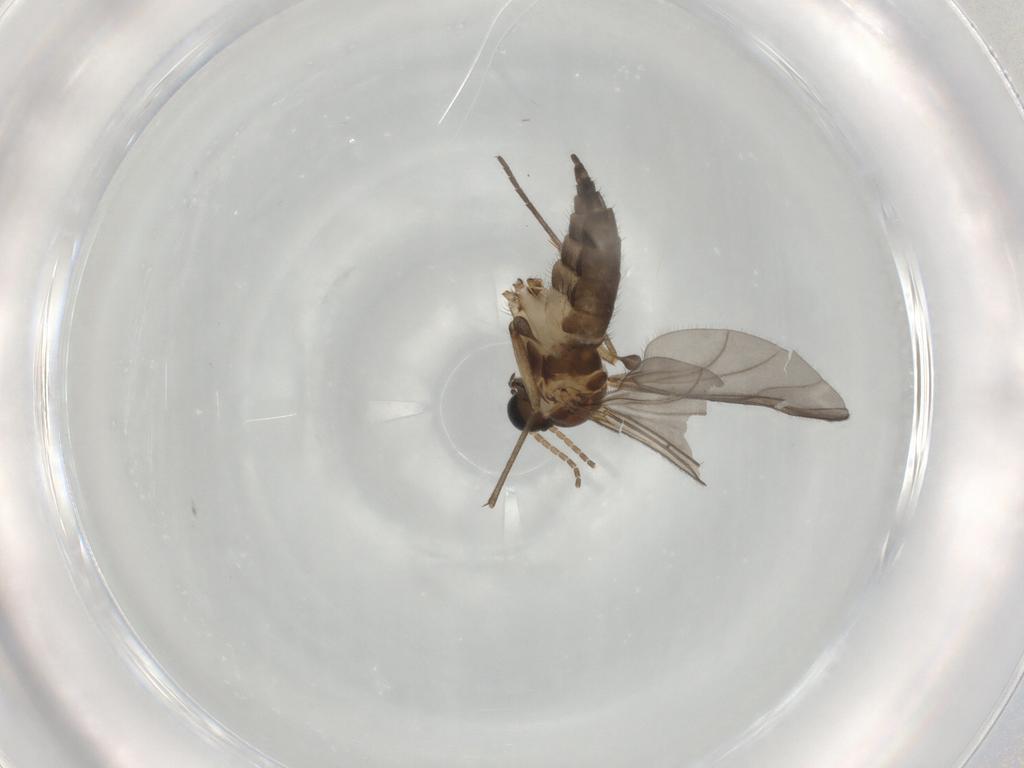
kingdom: Animalia
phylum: Arthropoda
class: Insecta
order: Diptera
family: Sciaridae
